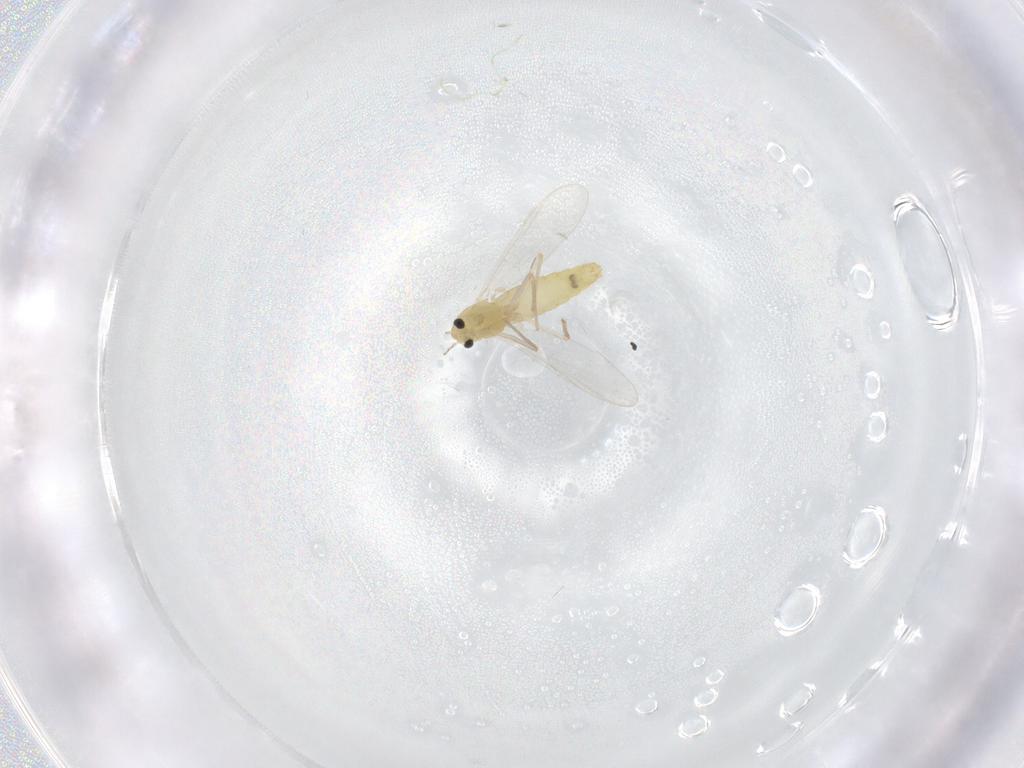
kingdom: Animalia
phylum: Arthropoda
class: Insecta
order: Diptera
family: Chironomidae
